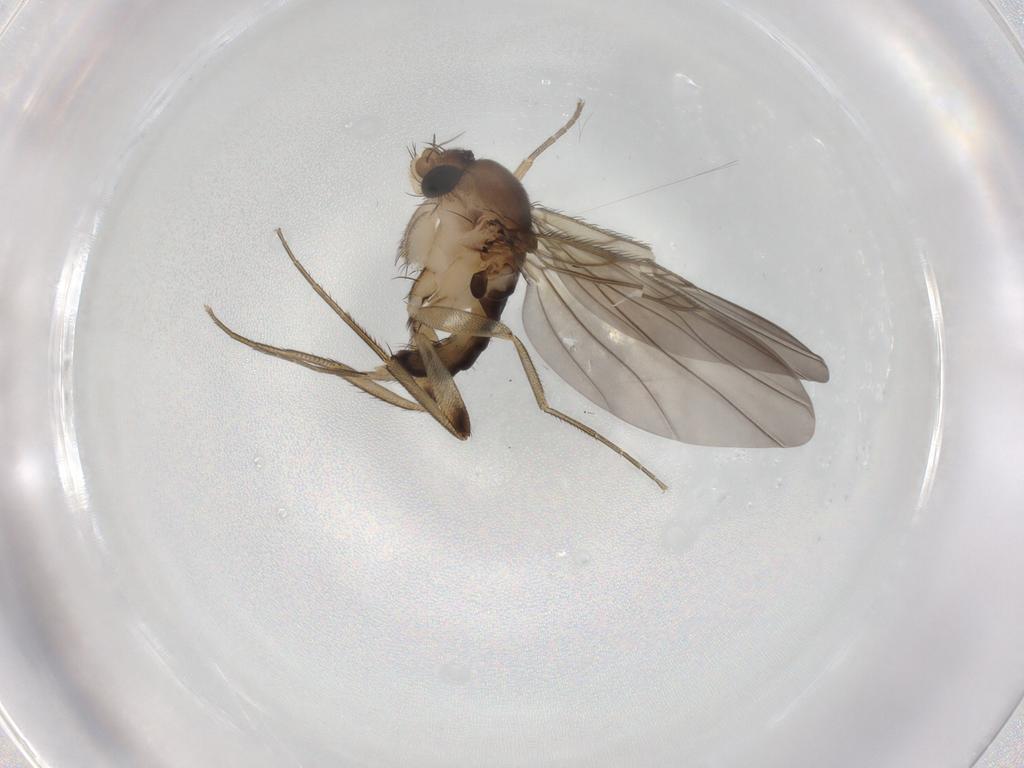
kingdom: Animalia
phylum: Arthropoda
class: Insecta
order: Diptera
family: Phoridae
